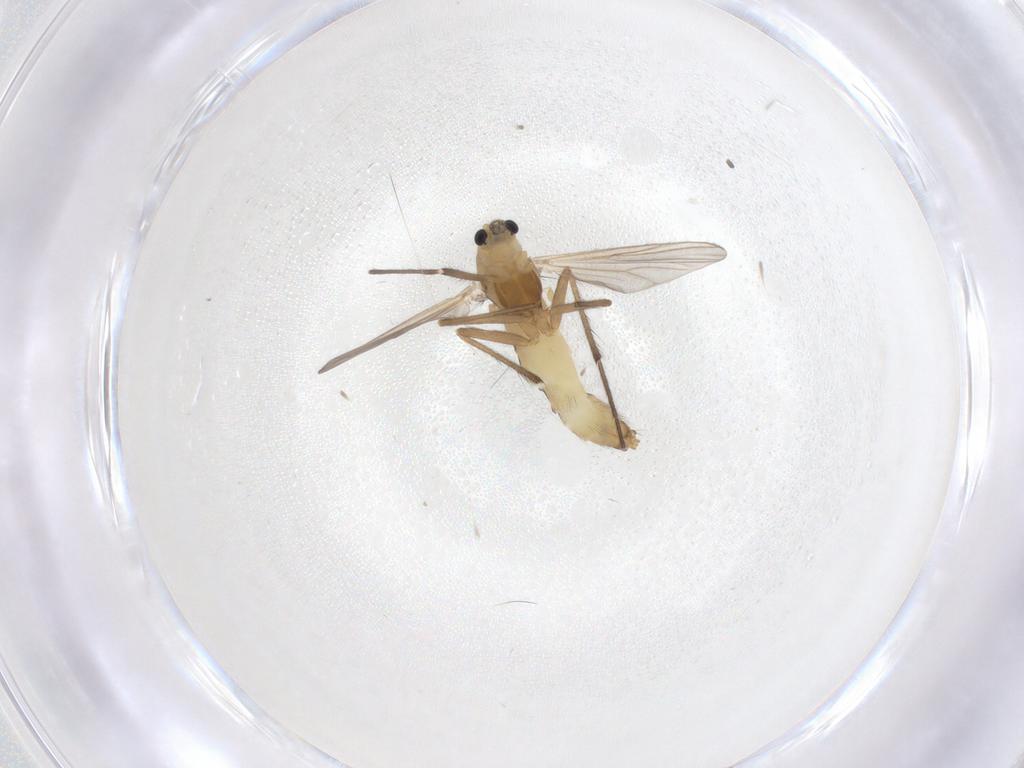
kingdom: Animalia
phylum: Arthropoda
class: Insecta
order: Diptera
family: Chironomidae
